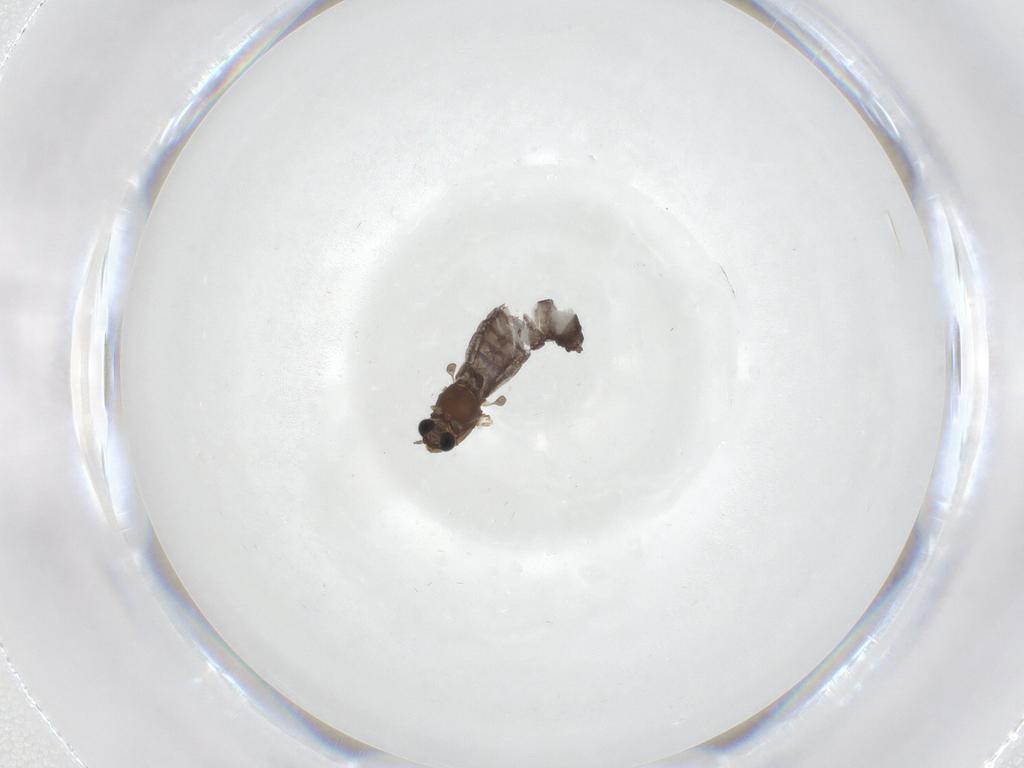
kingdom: Animalia
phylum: Arthropoda
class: Insecta
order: Diptera
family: Chironomidae
